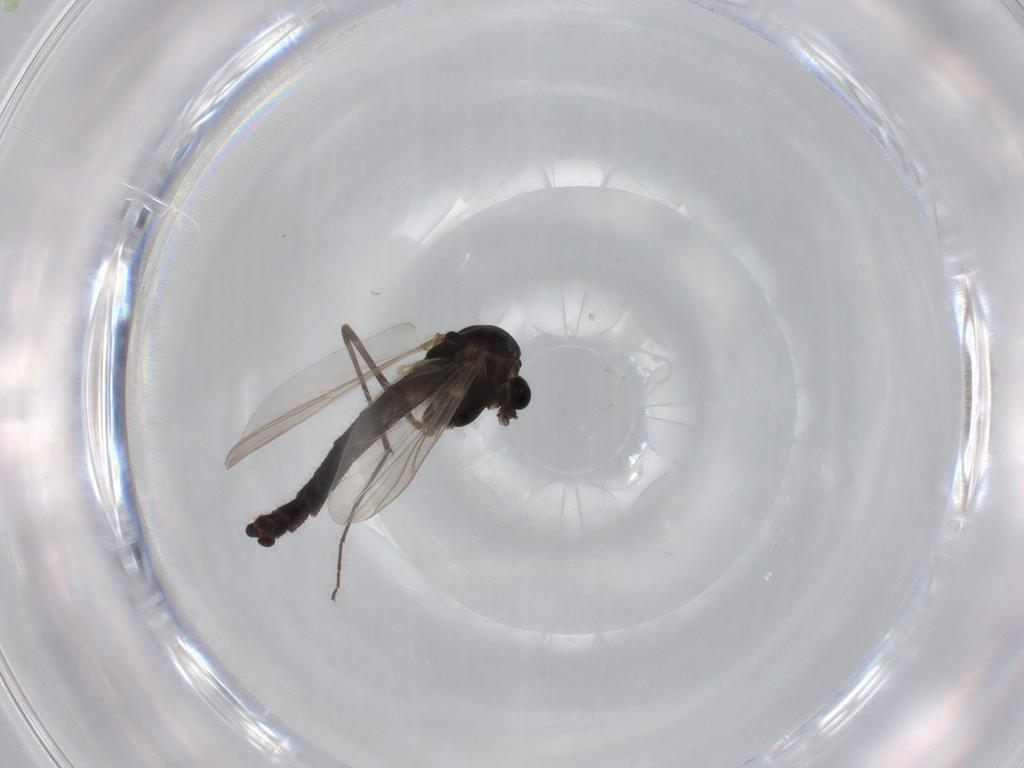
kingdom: Animalia
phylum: Arthropoda
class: Insecta
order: Diptera
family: Chironomidae
